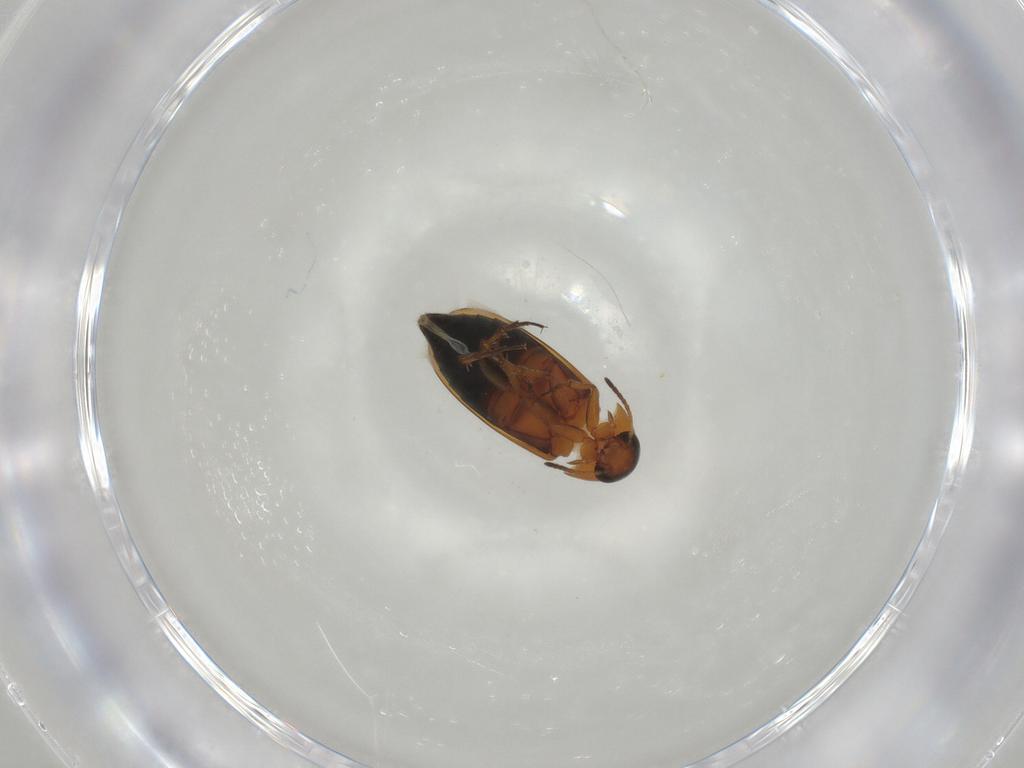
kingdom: Animalia
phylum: Arthropoda
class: Insecta
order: Coleoptera
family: Scraptiidae
